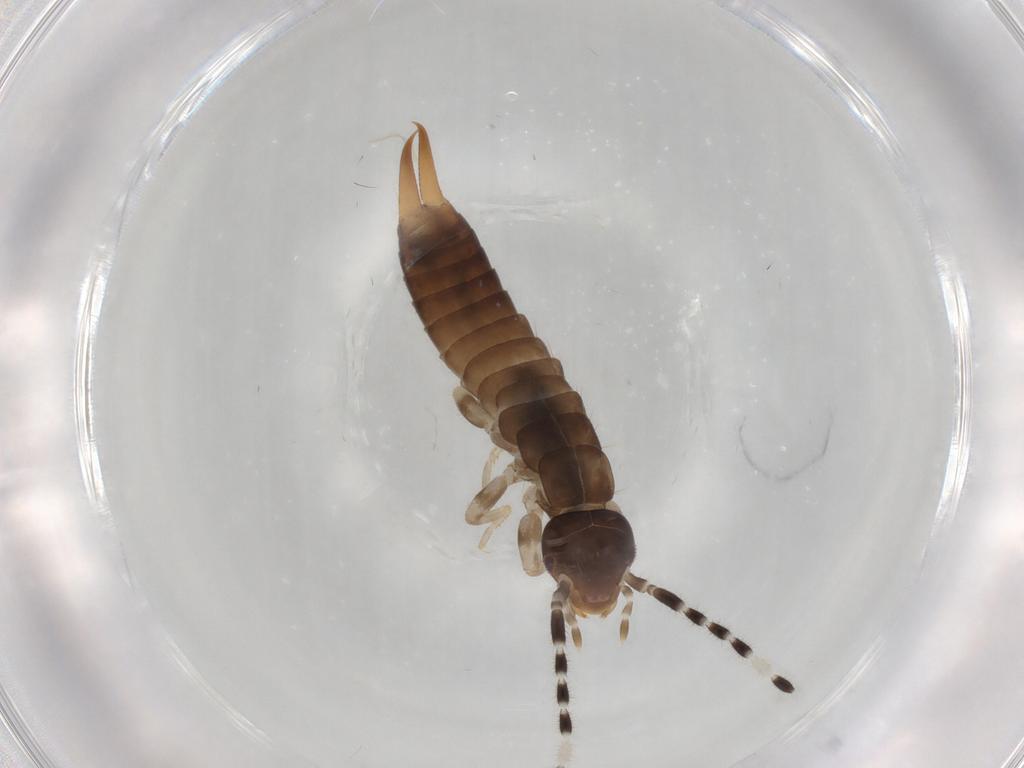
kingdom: Animalia
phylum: Arthropoda
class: Insecta
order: Dermaptera
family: Anisolabididae
